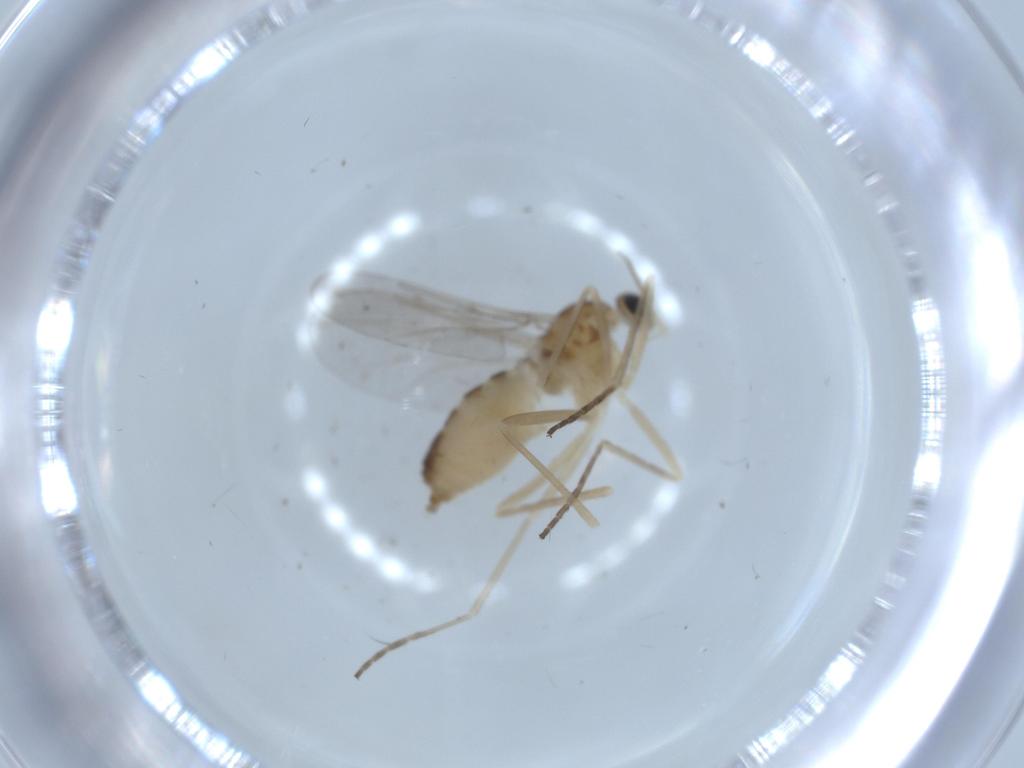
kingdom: Animalia
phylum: Arthropoda
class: Insecta
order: Diptera
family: Cecidomyiidae
